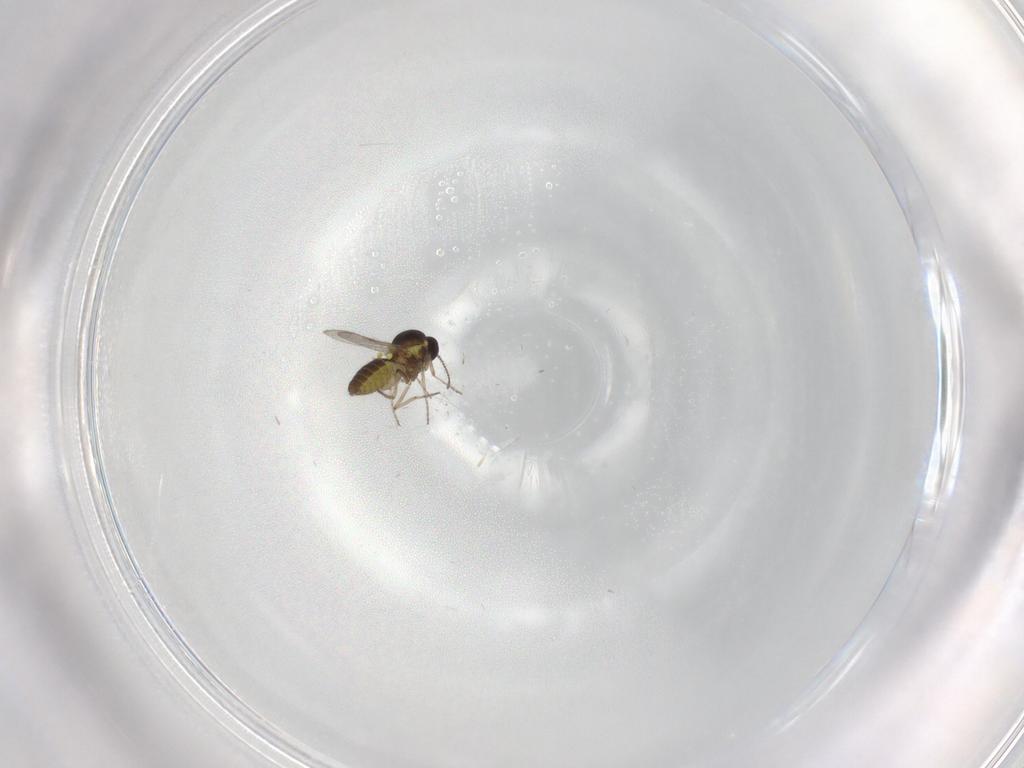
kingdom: Animalia
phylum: Arthropoda
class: Insecta
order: Diptera
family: Ceratopogonidae
